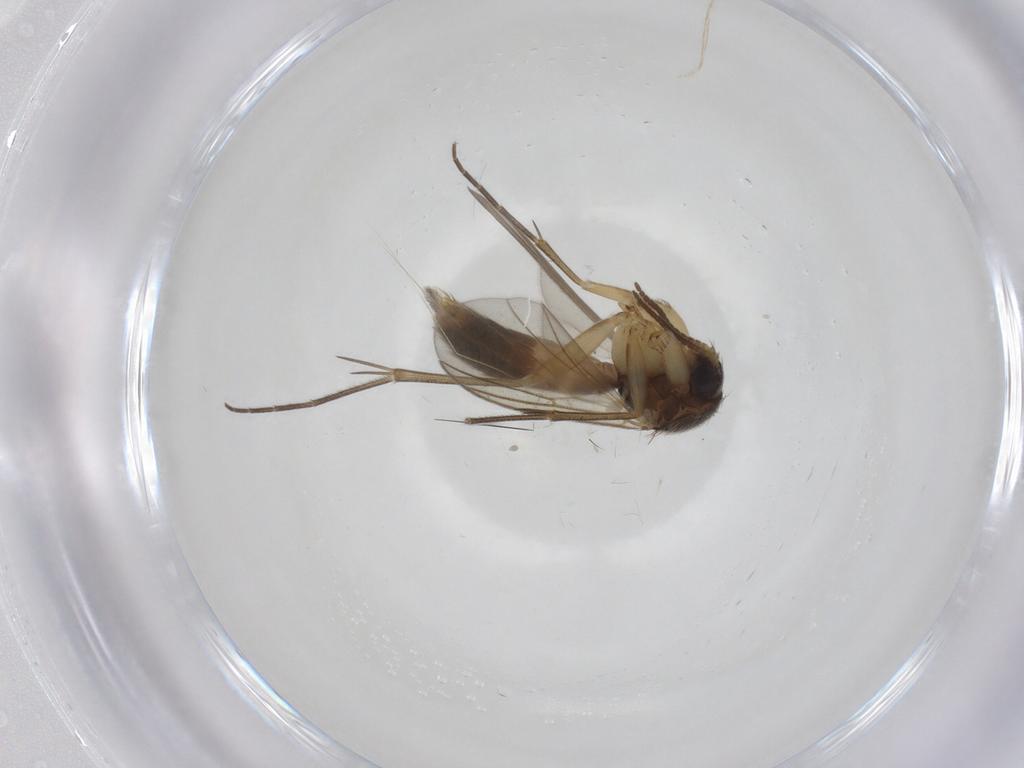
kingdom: Animalia
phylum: Arthropoda
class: Insecta
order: Diptera
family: Mycetophilidae
